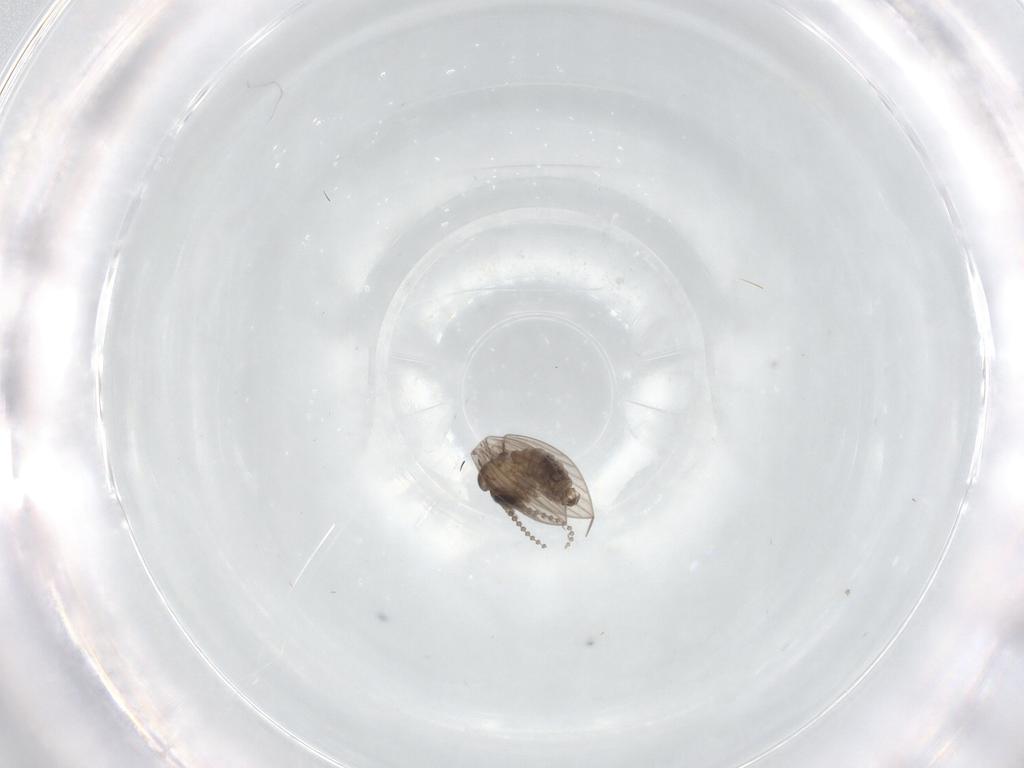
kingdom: Animalia
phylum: Arthropoda
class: Insecta
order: Diptera
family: Psychodidae
